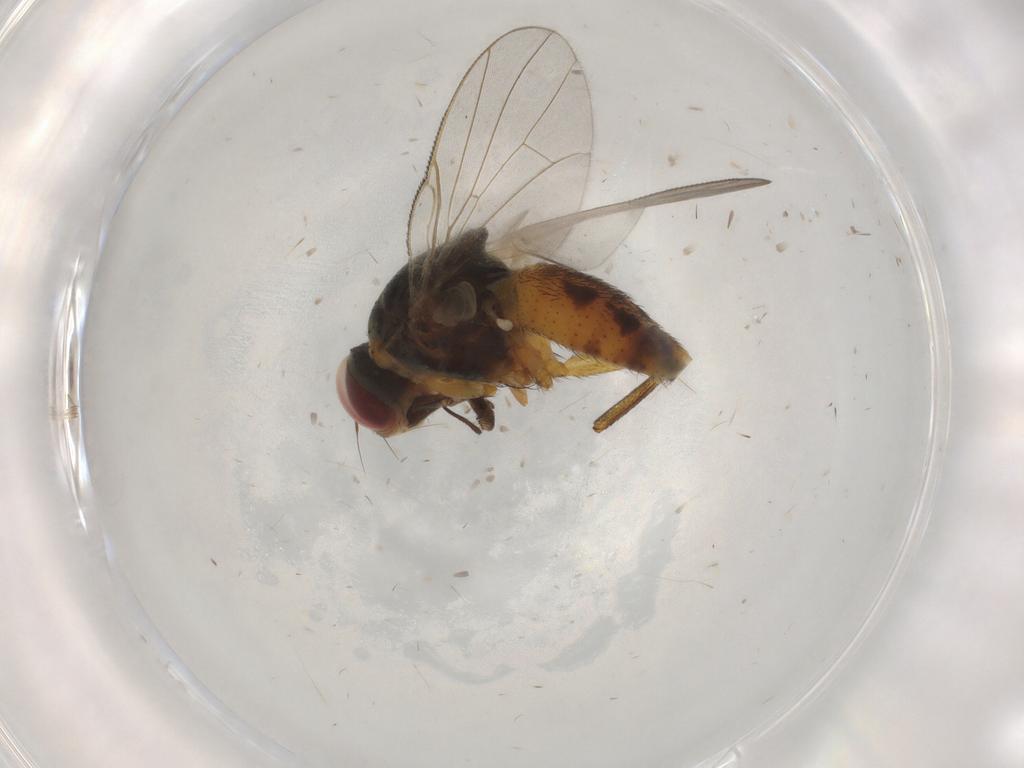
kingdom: Animalia
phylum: Arthropoda
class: Insecta
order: Diptera
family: Muscidae
